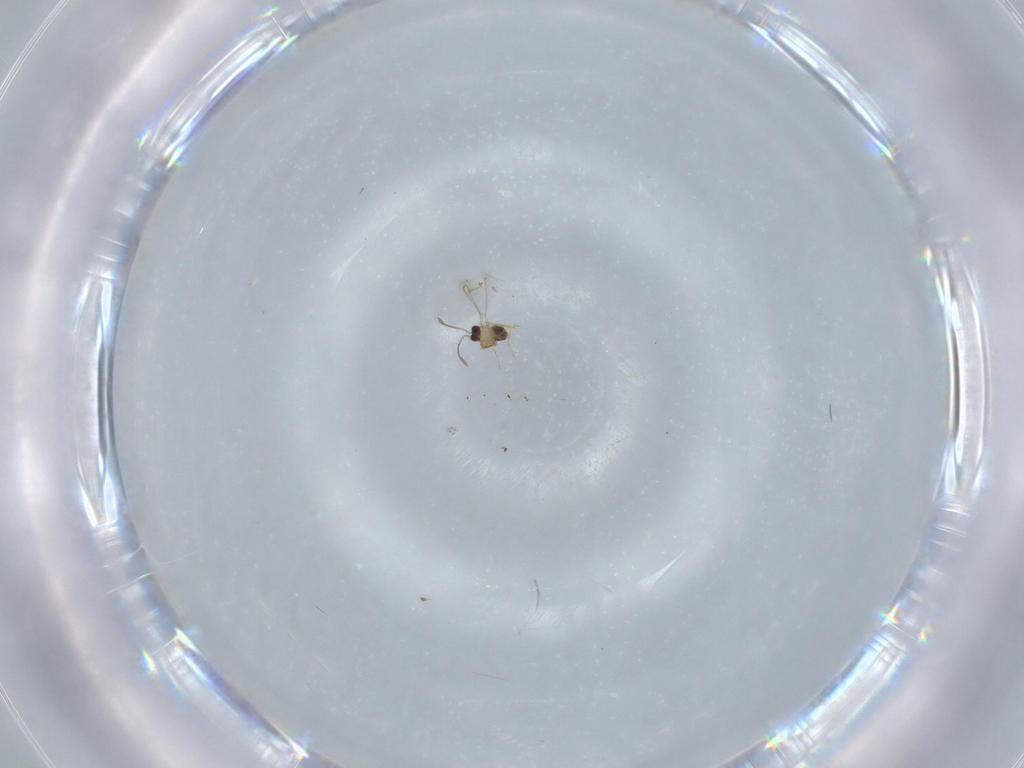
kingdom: Animalia
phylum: Arthropoda
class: Insecta
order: Hymenoptera
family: Mymaridae
